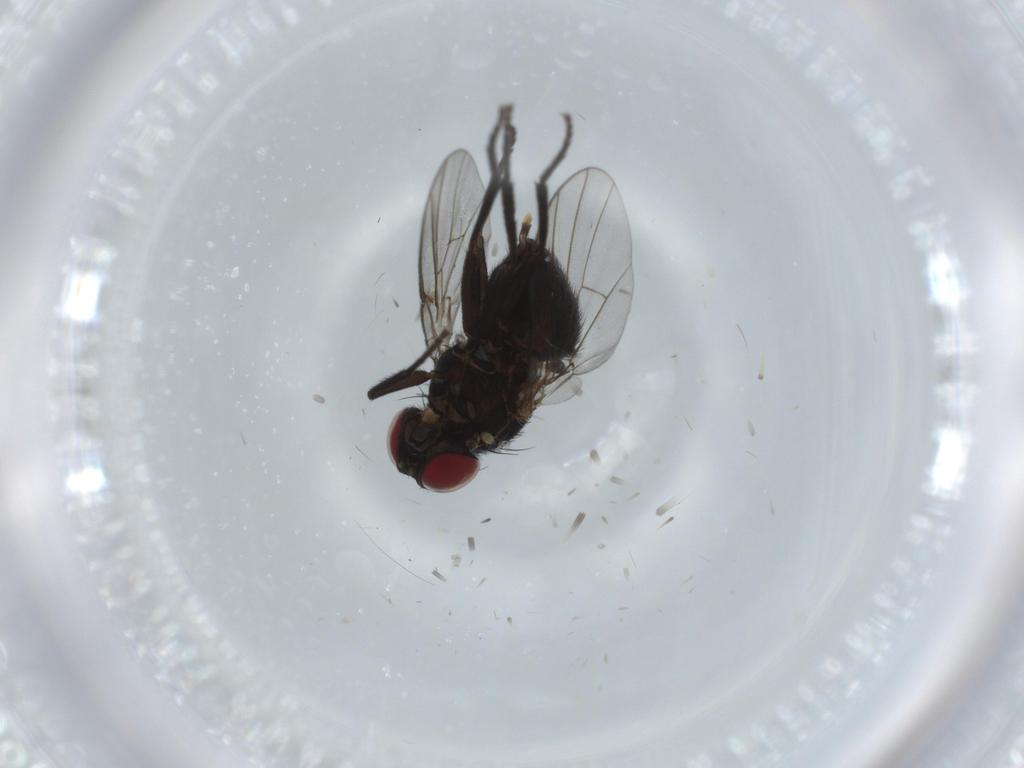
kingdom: Animalia
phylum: Arthropoda
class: Insecta
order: Diptera
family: Agromyzidae
